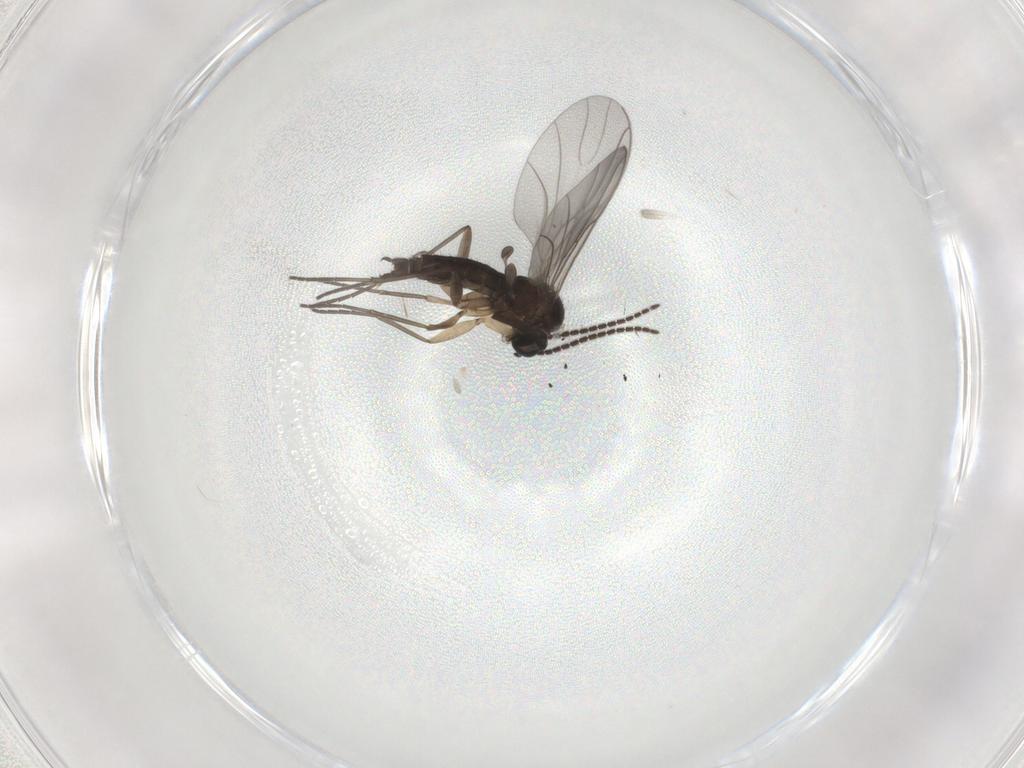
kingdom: Animalia
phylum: Arthropoda
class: Insecta
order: Diptera
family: Sciaridae
